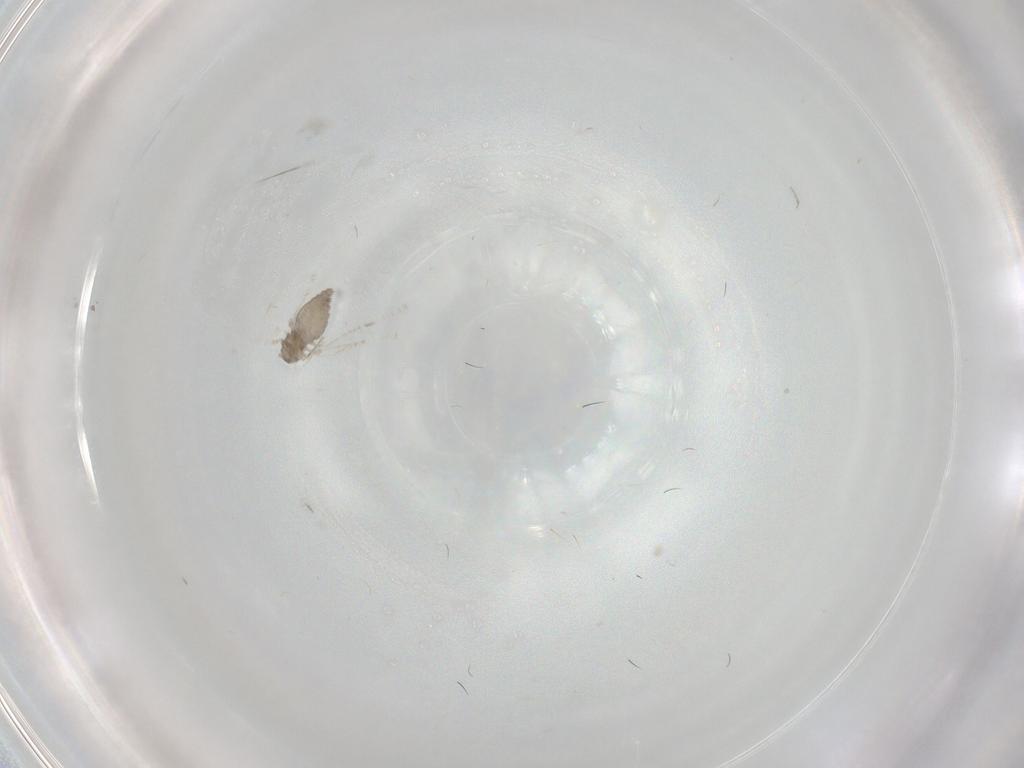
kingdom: Animalia
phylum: Arthropoda
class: Insecta
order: Diptera
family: Cecidomyiidae
